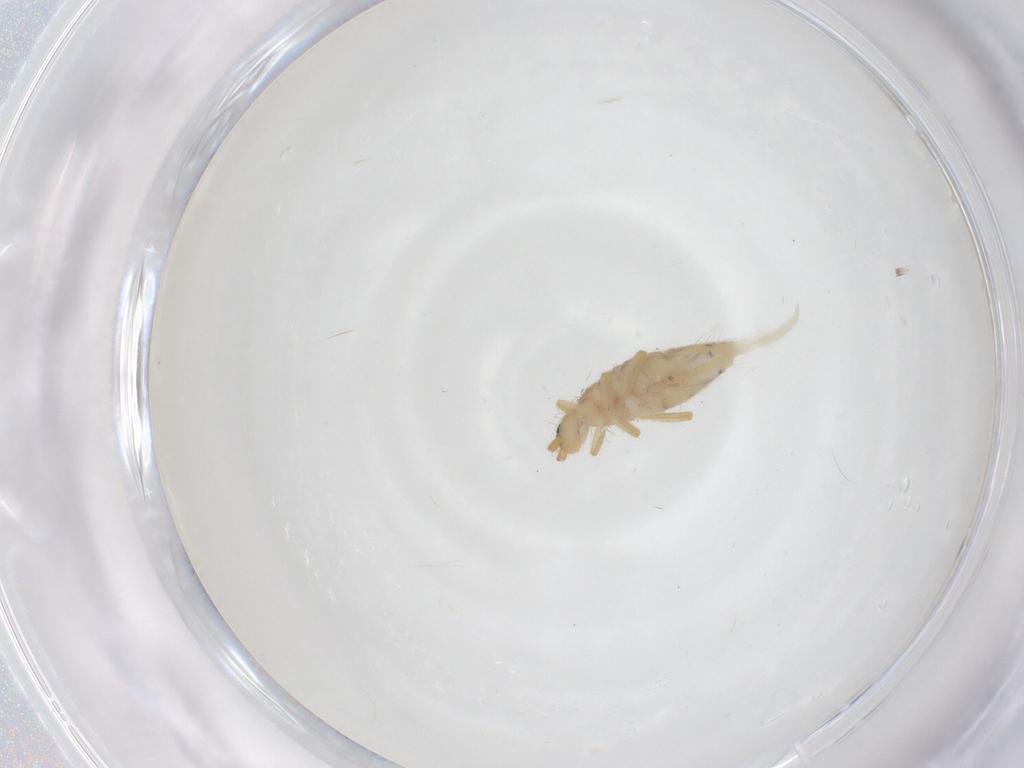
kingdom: Animalia
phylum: Arthropoda
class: Collembola
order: Entomobryomorpha
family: Entomobryidae
